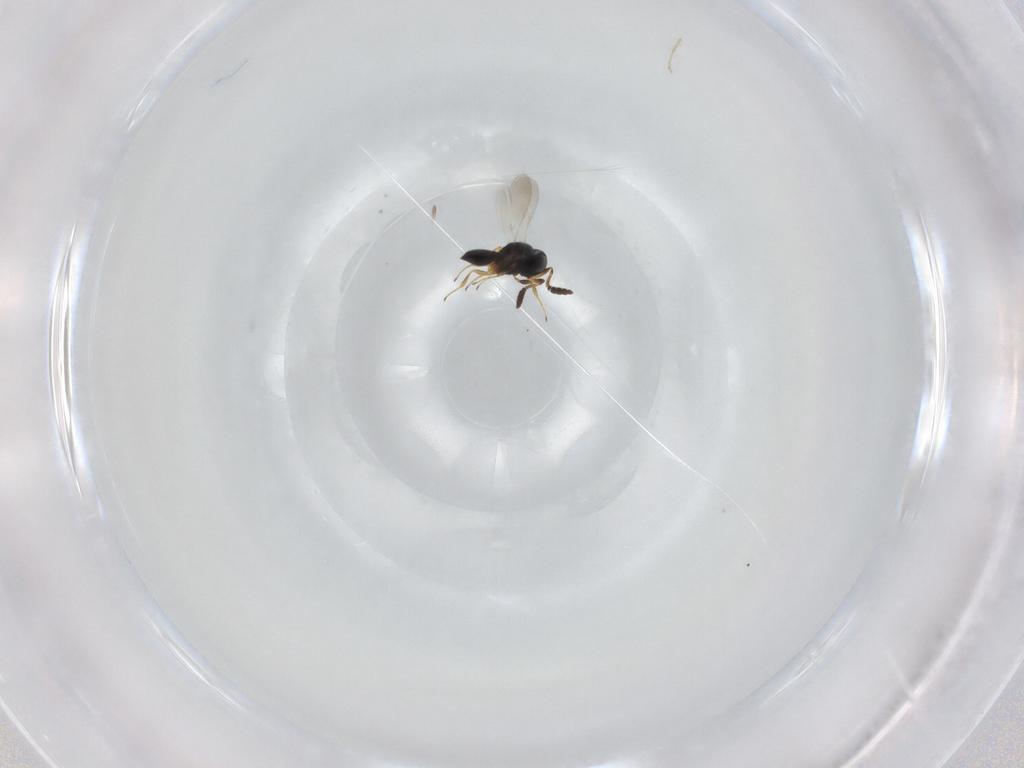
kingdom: Animalia
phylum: Arthropoda
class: Insecta
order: Hymenoptera
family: Scelionidae
